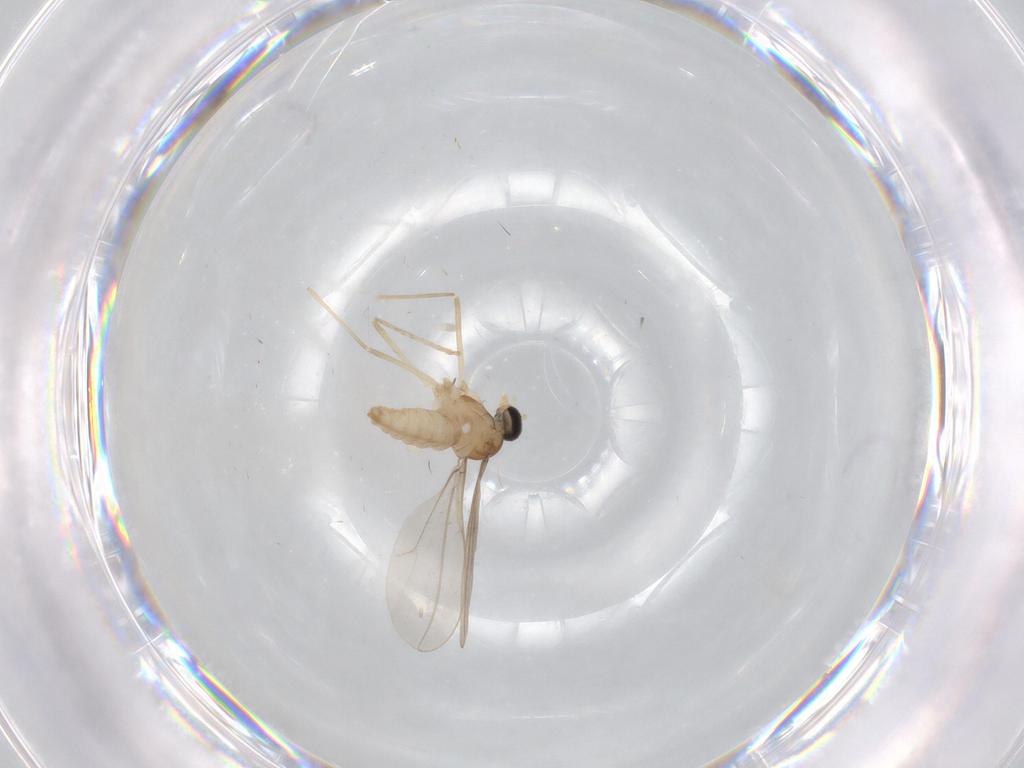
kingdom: Animalia
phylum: Arthropoda
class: Insecta
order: Diptera
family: Cecidomyiidae
